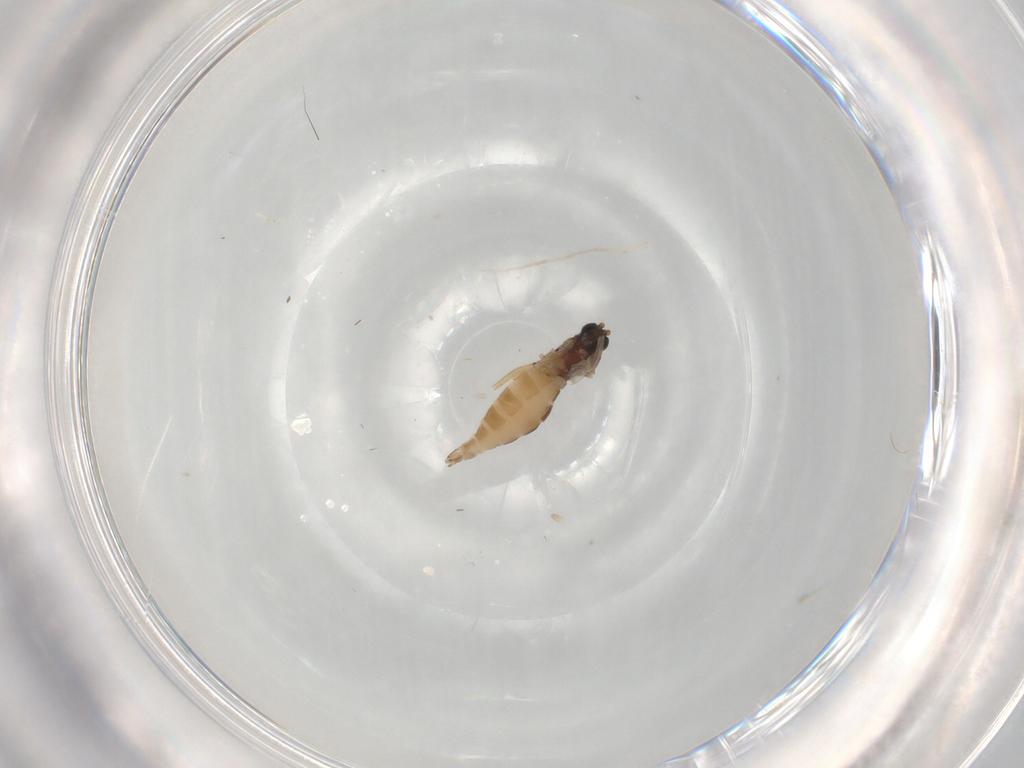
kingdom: Animalia
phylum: Arthropoda
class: Insecta
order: Diptera
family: Sciaridae
